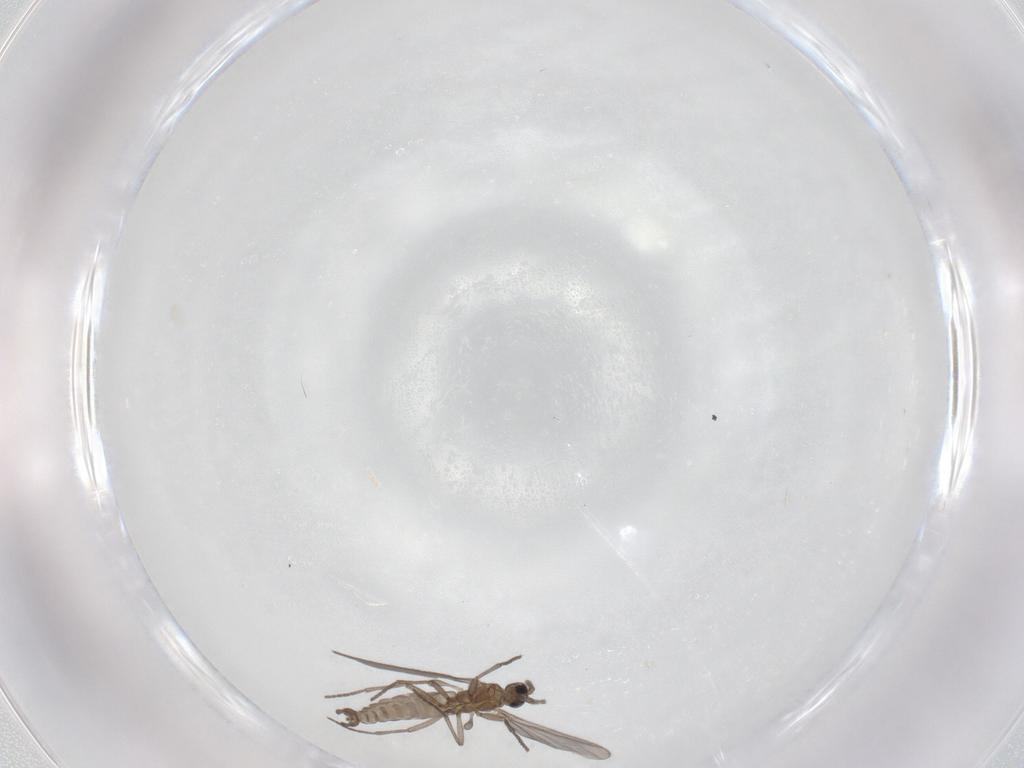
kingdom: Animalia
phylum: Arthropoda
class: Insecta
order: Diptera
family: Sciaridae
